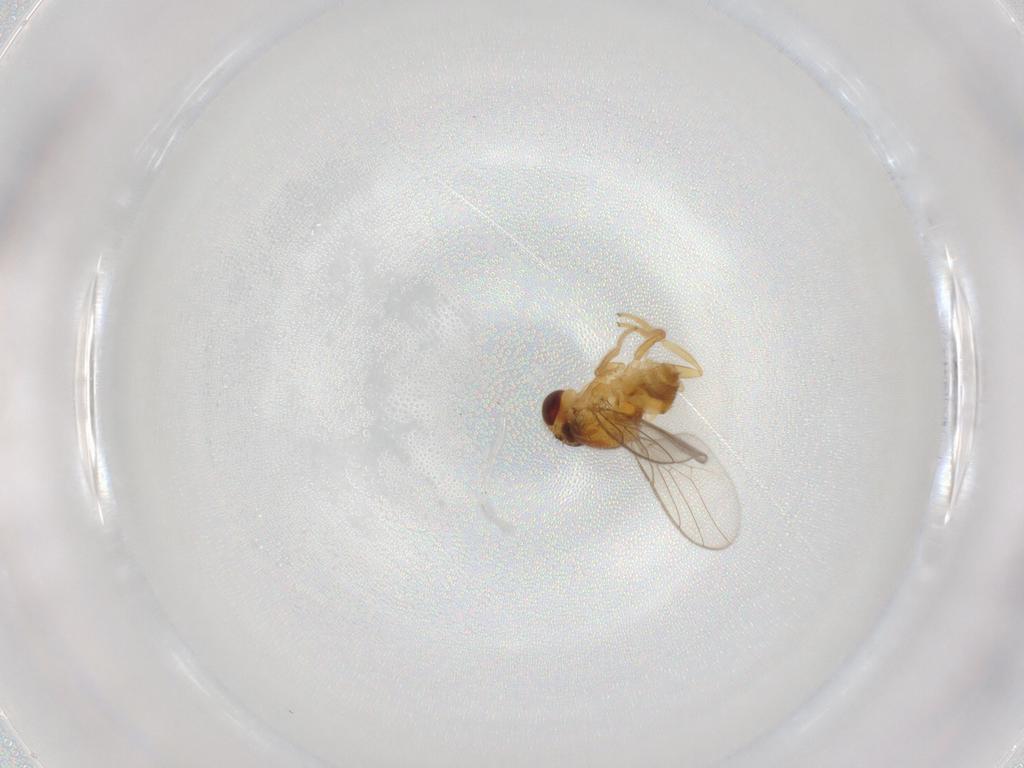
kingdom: Animalia
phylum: Arthropoda
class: Insecta
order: Diptera
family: Chloropidae
